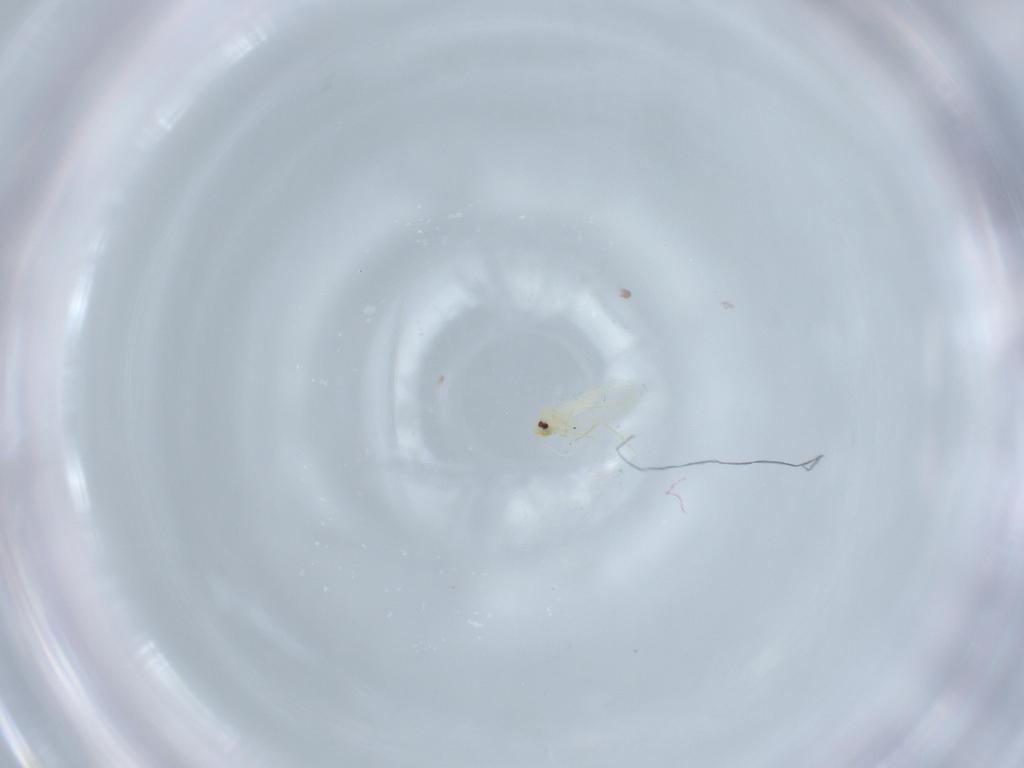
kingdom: Animalia
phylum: Arthropoda
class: Insecta
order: Hemiptera
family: Aleyrodidae
